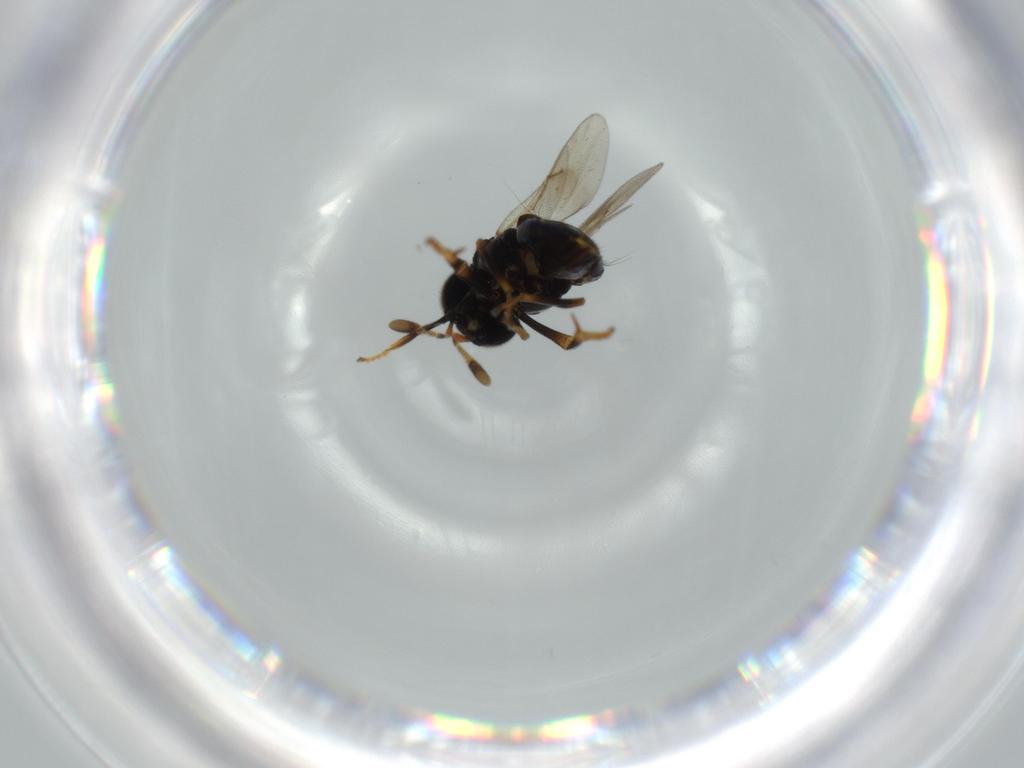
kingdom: Animalia
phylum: Arthropoda
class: Insecta
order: Hymenoptera
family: Encyrtidae
